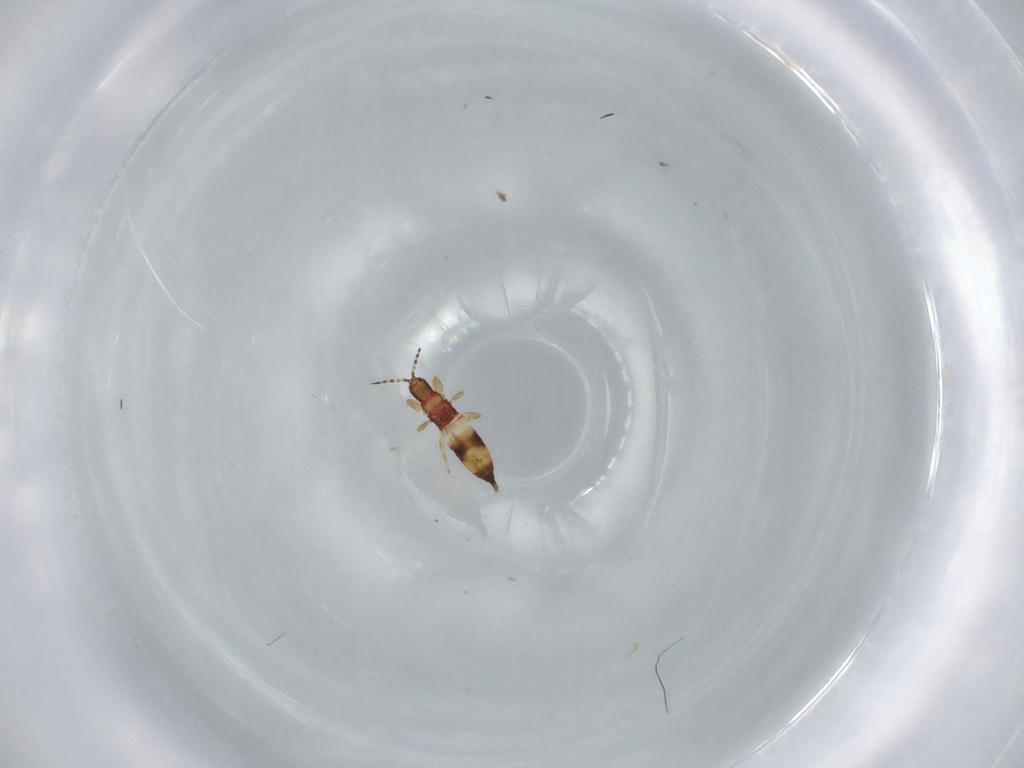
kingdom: Animalia
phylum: Arthropoda
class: Insecta
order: Thysanoptera
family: Phlaeothripidae
